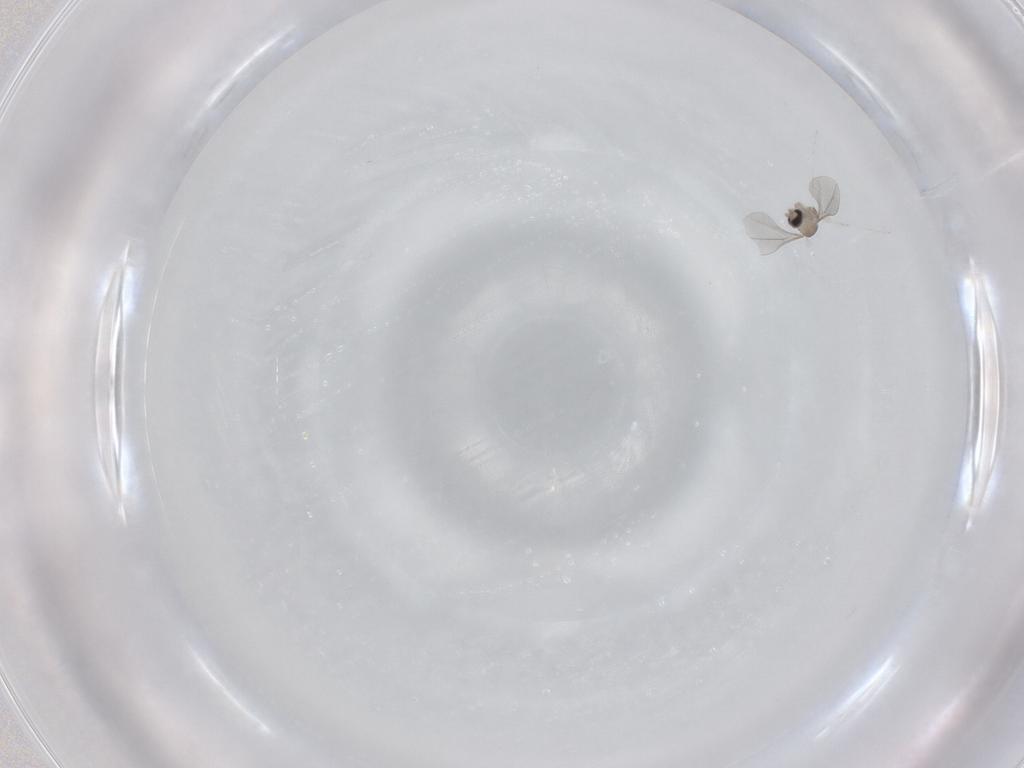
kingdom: Animalia
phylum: Arthropoda
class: Insecta
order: Diptera
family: Cecidomyiidae
